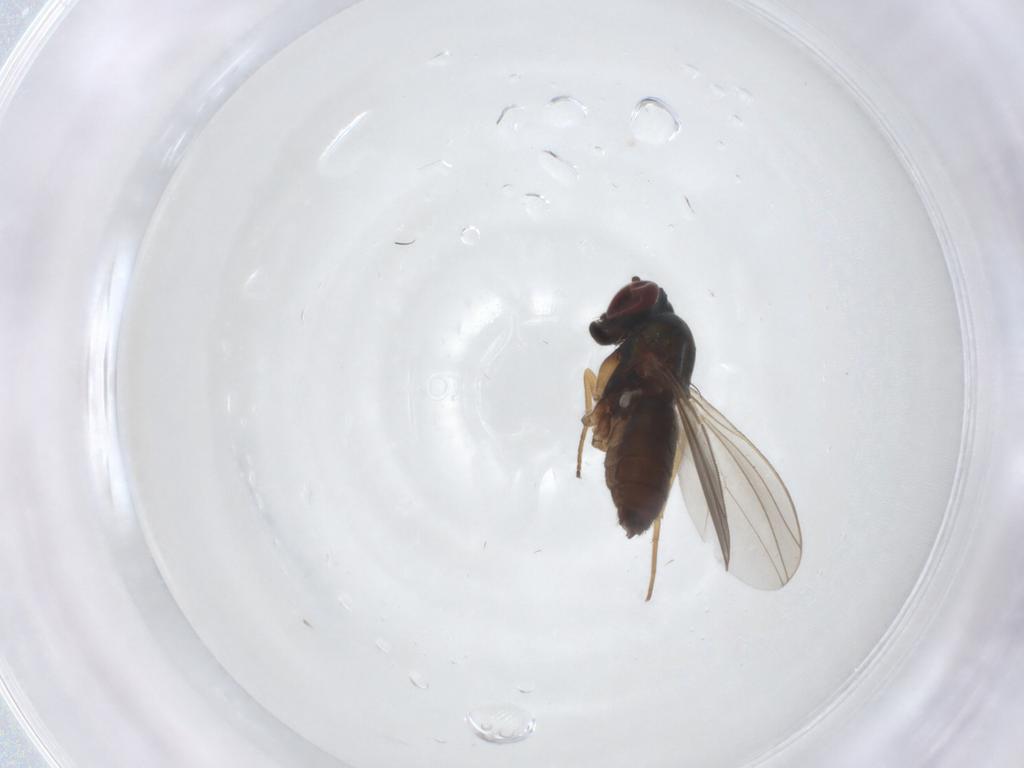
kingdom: Animalia
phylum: Arthropoda
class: Insecta
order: Diptera
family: Dolichopodidae
